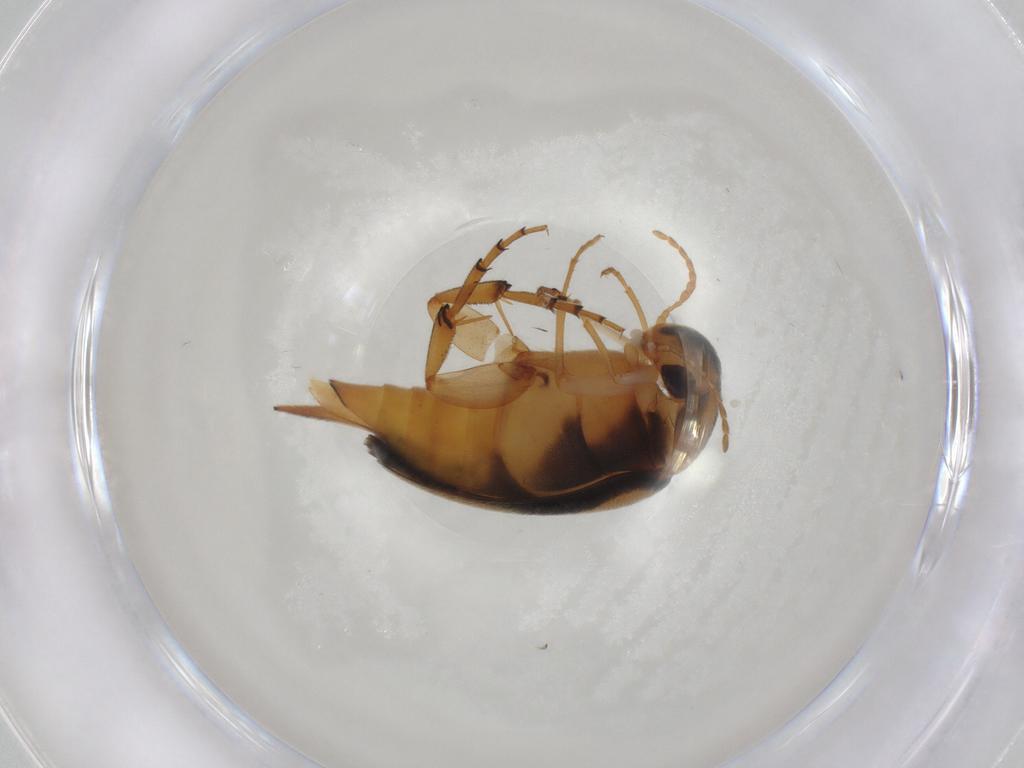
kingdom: Animalia
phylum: Arthropoda
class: Insecta
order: Coleoptera
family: Mordellidae
